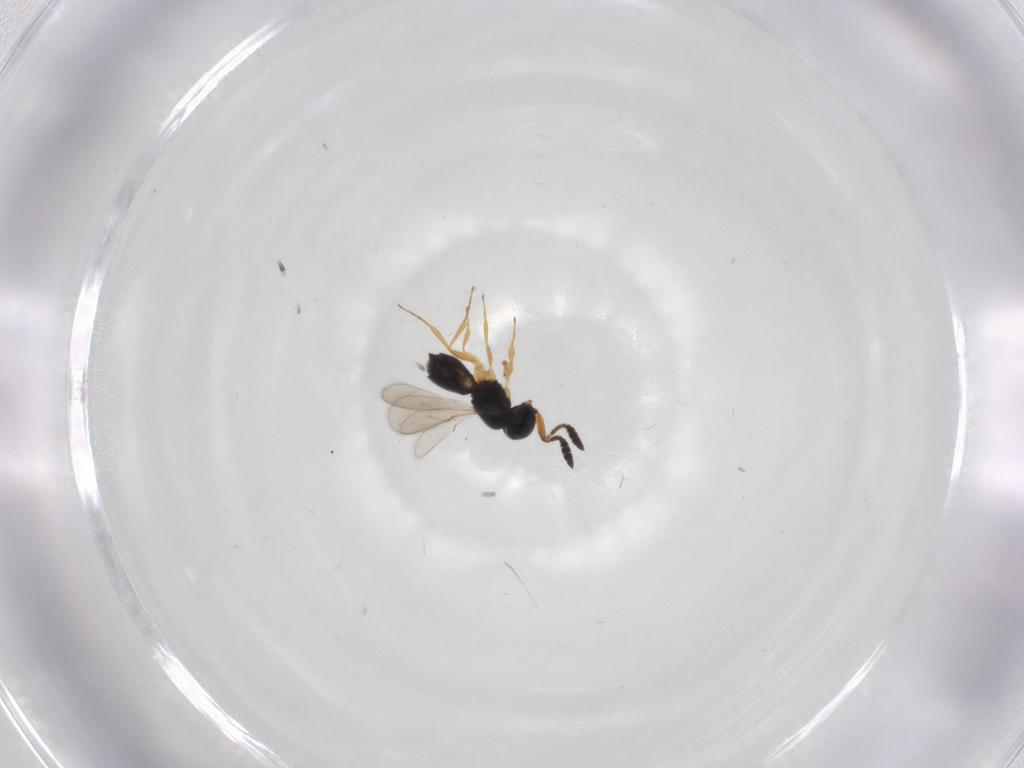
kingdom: Animalia
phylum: Arthropoda
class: Insecta
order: Hymenoptera
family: Scelionidae
